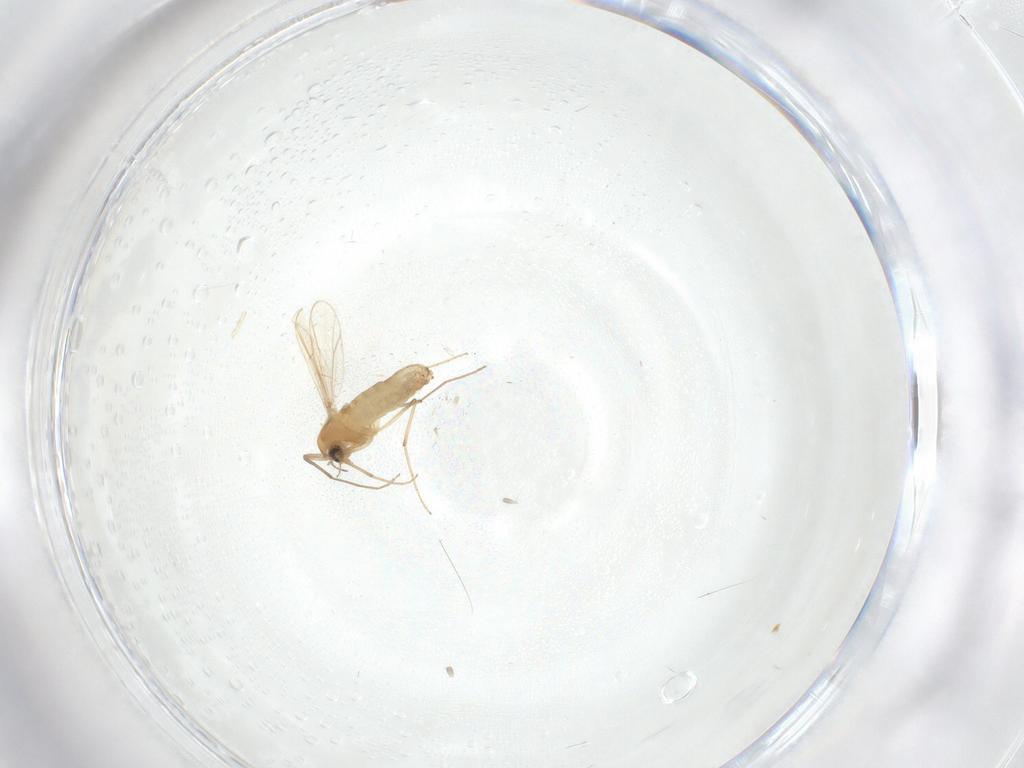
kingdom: Animalia
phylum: Arthropoda
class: Insecta
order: Diptera
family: Chironomidae
